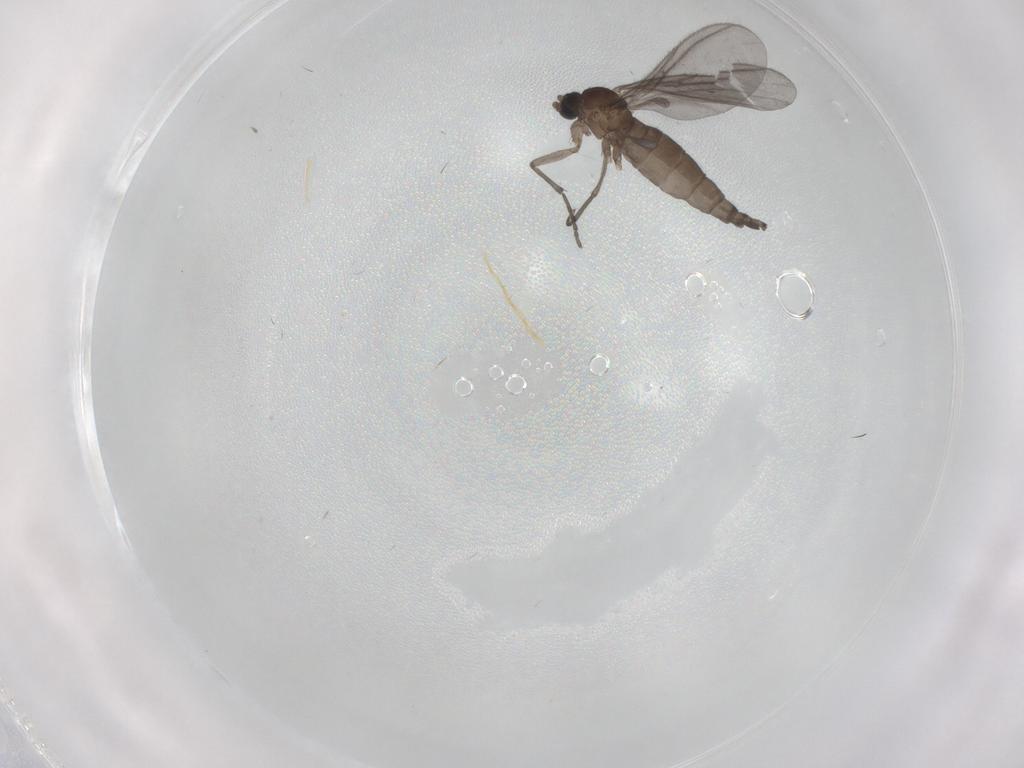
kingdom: Animalia
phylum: Arthropoda
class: Insecta
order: Diptera
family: Sciaridae
